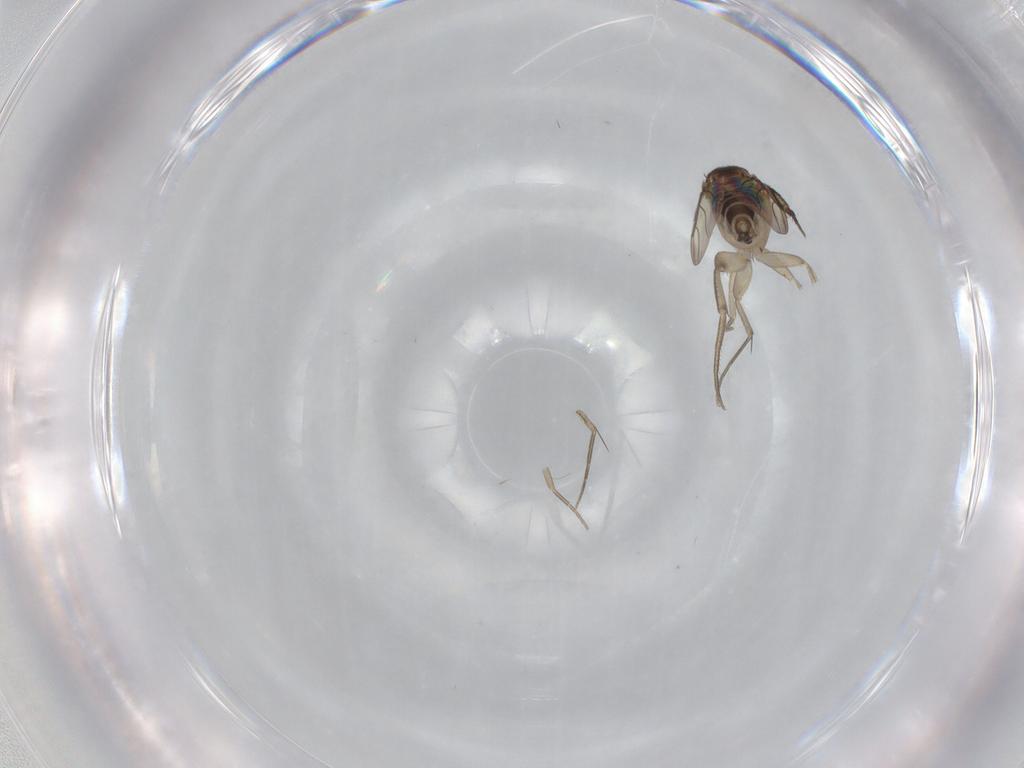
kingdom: Animalia
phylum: Arthropoda
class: Insecta
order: Diptera
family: Phoridae
